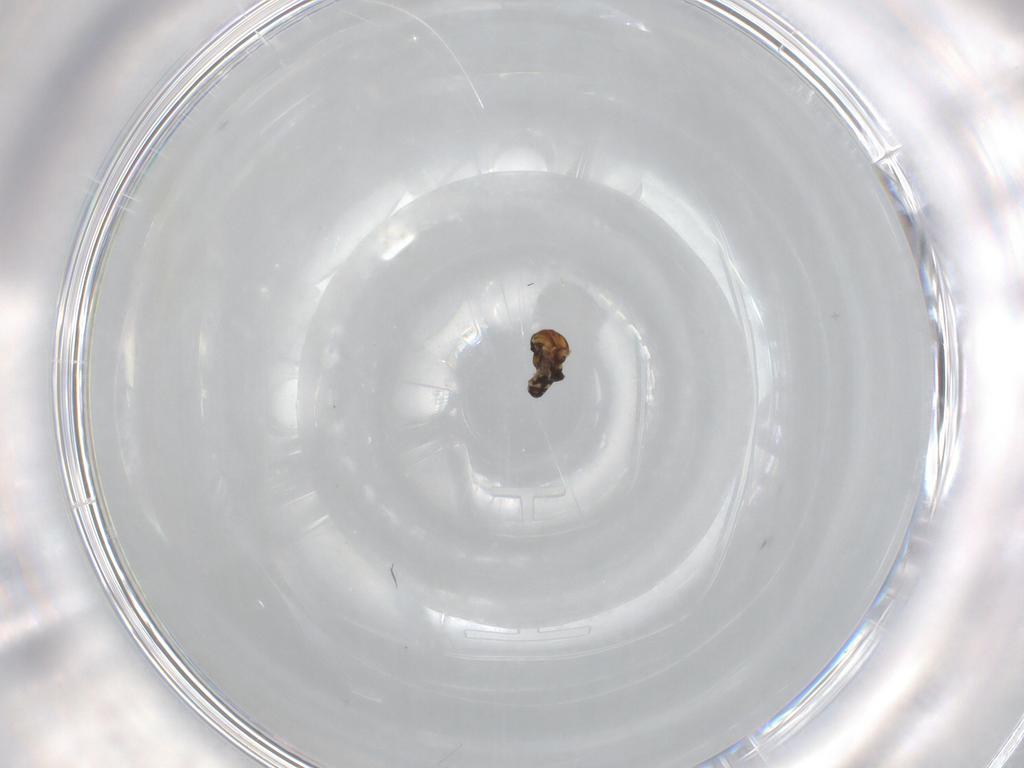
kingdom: Animalia
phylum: Arthropoda
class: Insecta
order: Diptera
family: Ceratopogonidae
